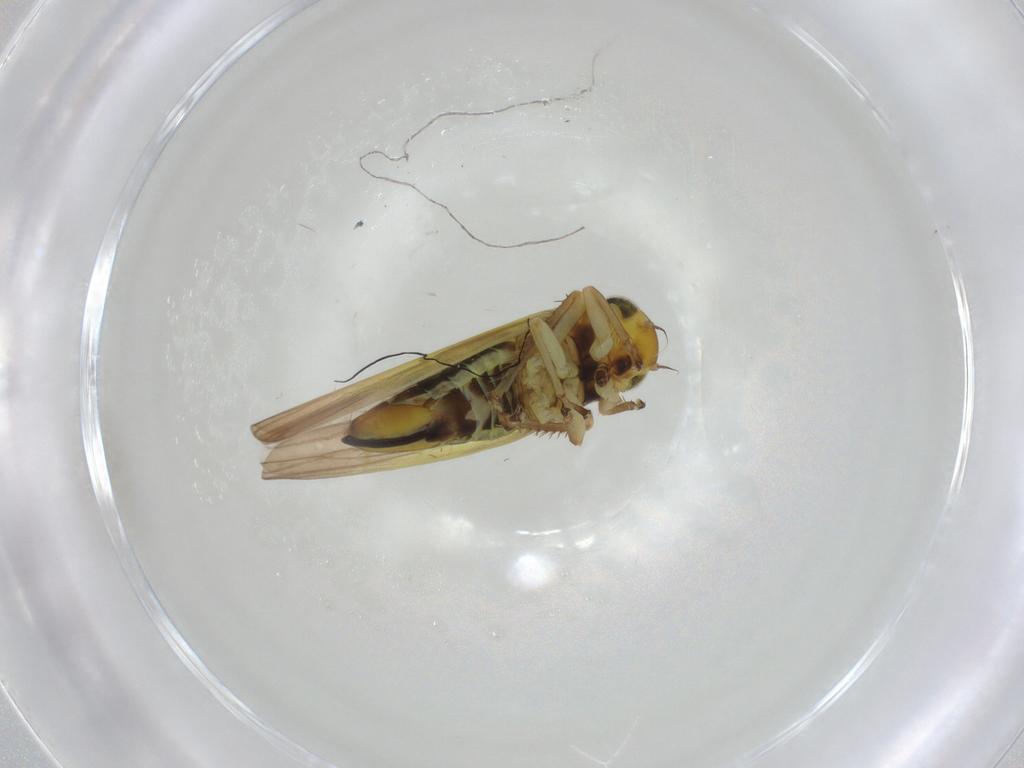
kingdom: Animalia
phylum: Arthropoda
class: Insecta
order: Hemiptera
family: Cicadellidae
